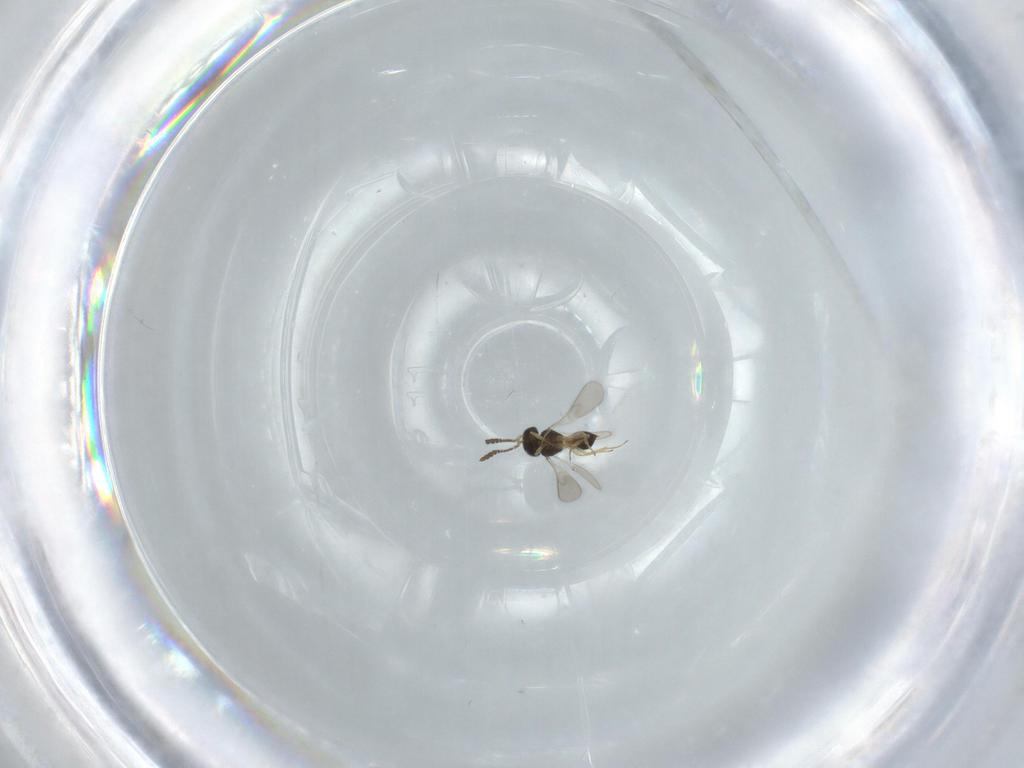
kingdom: Animalia
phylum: Arthropoda
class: Insecta
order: Hymenoptera
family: Scelionidae
